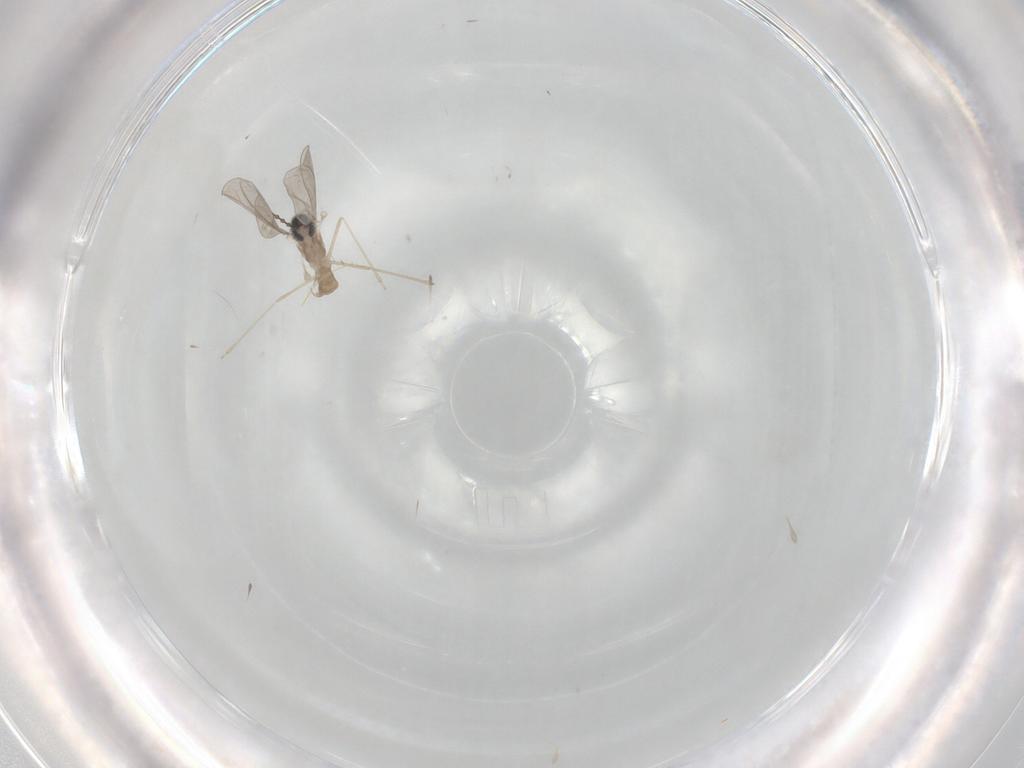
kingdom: Animalia
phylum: Arthropoda
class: Insecta
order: Diptera
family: Cecidomyiidae
